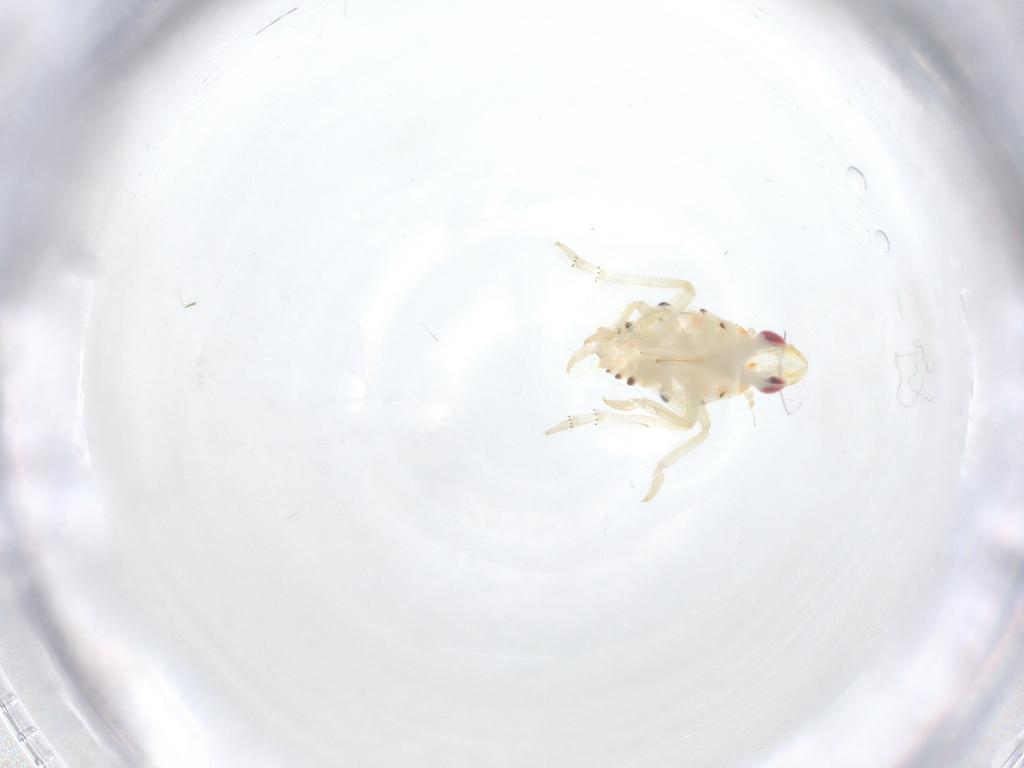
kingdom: Animalia
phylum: Arthropoda
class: Insecta
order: Hemiptera
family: Tropiduchidae
